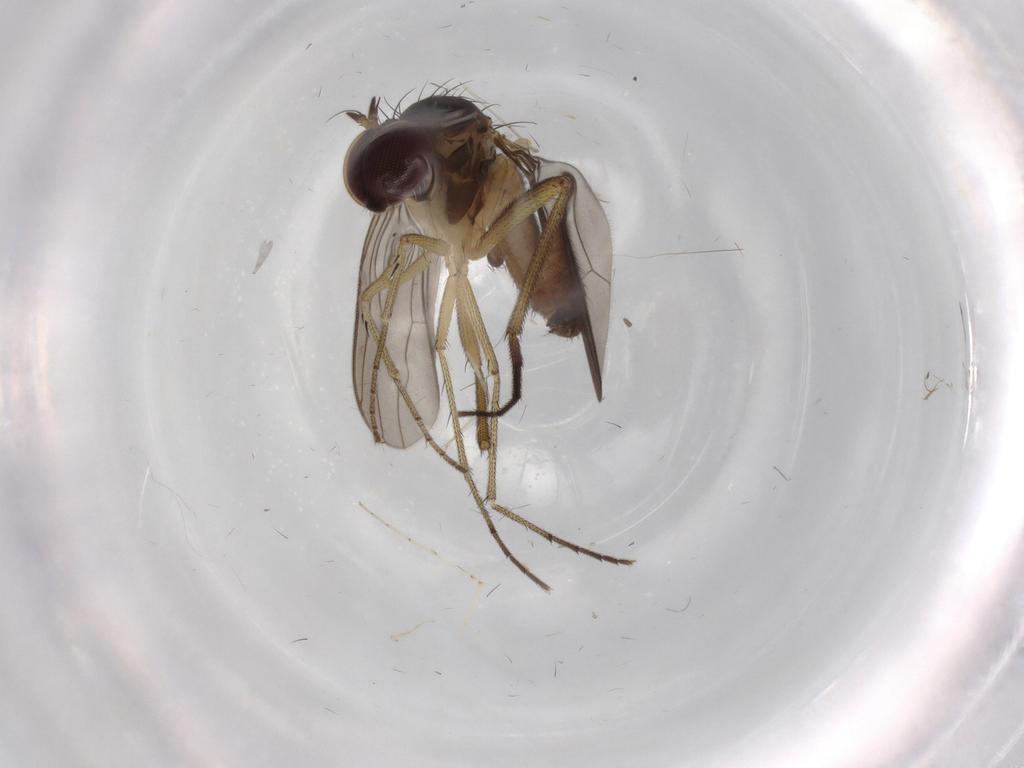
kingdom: Animalia
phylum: Arthropoda
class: Insecta
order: Diptera
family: Dolichopodidae
